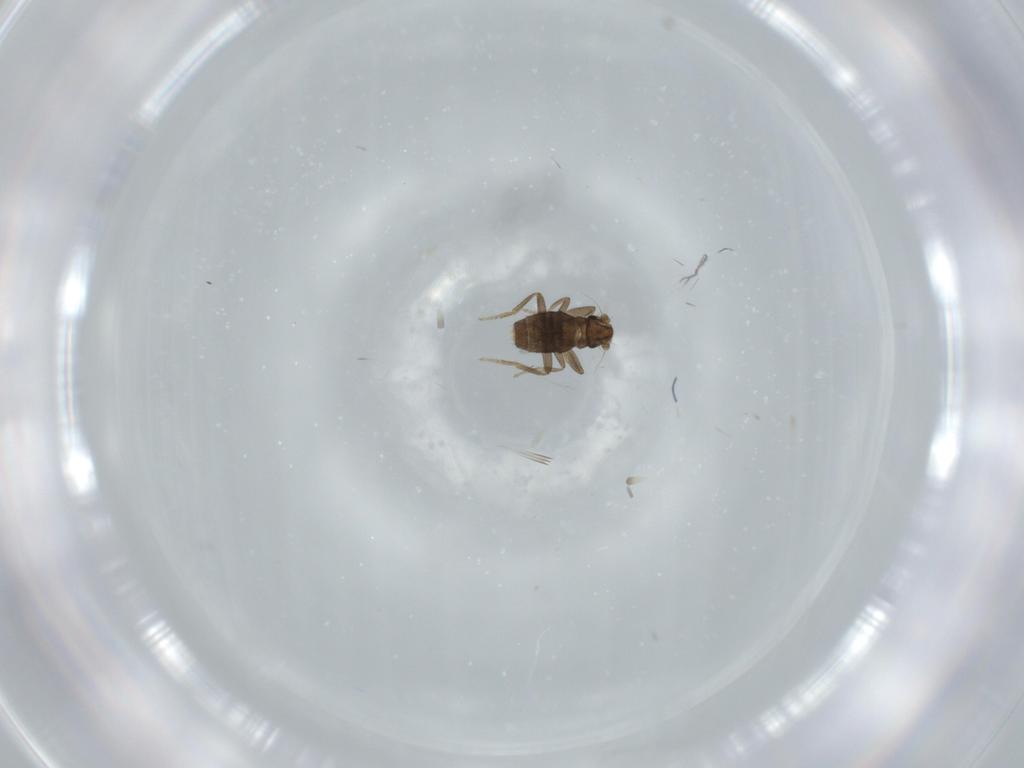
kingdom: Animalia
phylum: Arthropoda
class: Insecta
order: Diptera
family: Phoridae
